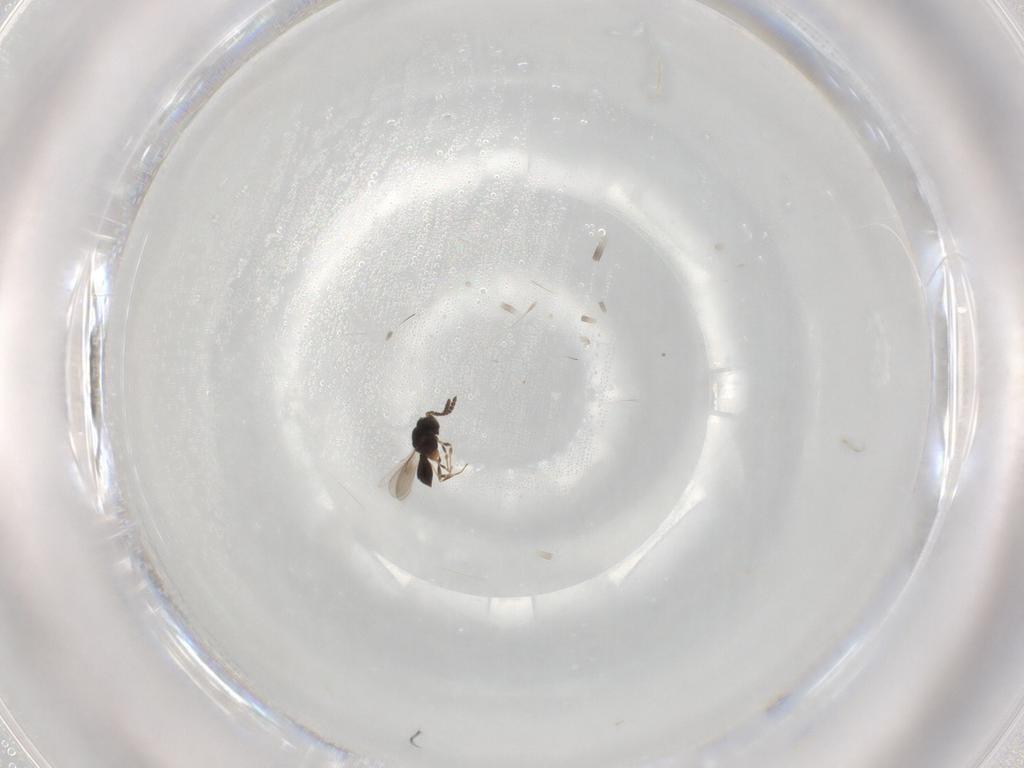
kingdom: Animalia
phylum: Arthropoda
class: Insecta
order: Hymenoptera
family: Scelionidae
